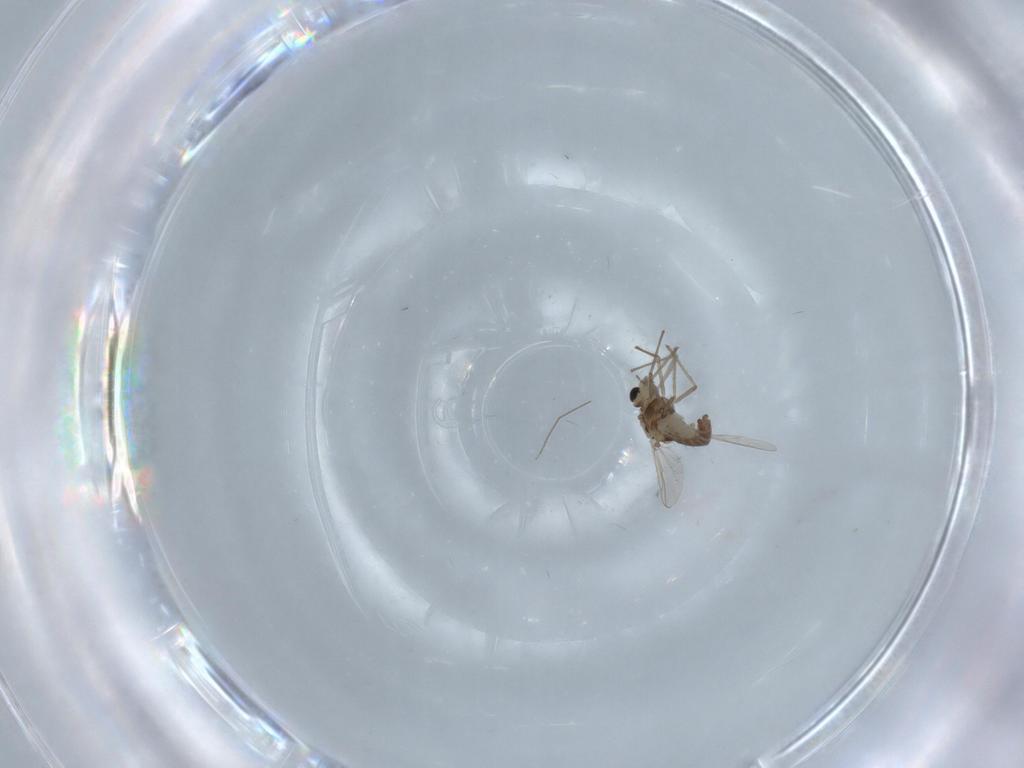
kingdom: Animalia
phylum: Arthropoda
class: Insecta
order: Diptera
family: Chironomidae
